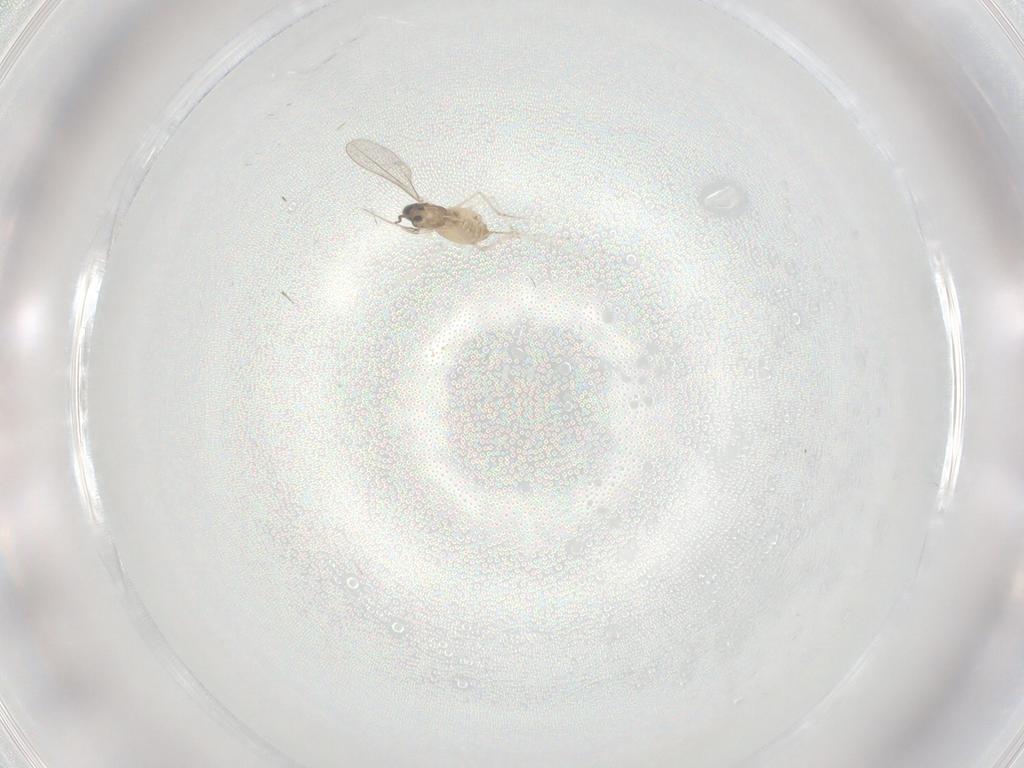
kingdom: Animalia
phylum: Arthropoda
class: Insecta
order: Diptera
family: Cecidomyiidae
